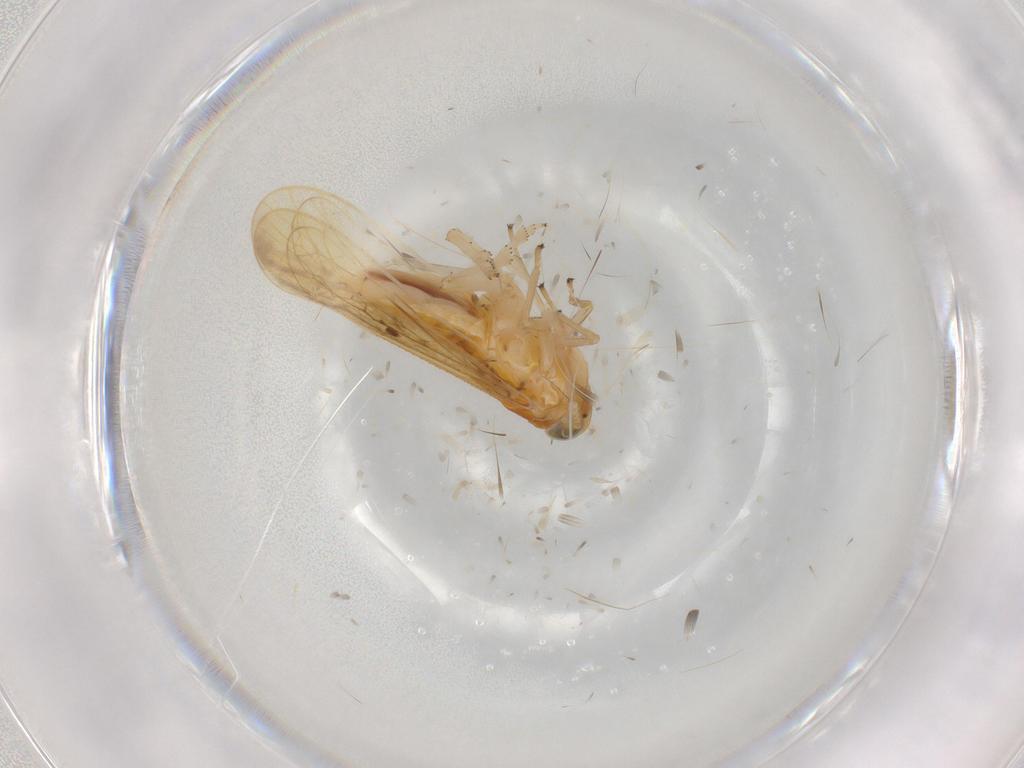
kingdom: Animalia
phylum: Arthropoda
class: Insecta
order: Hemiptera
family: Delphacidae
